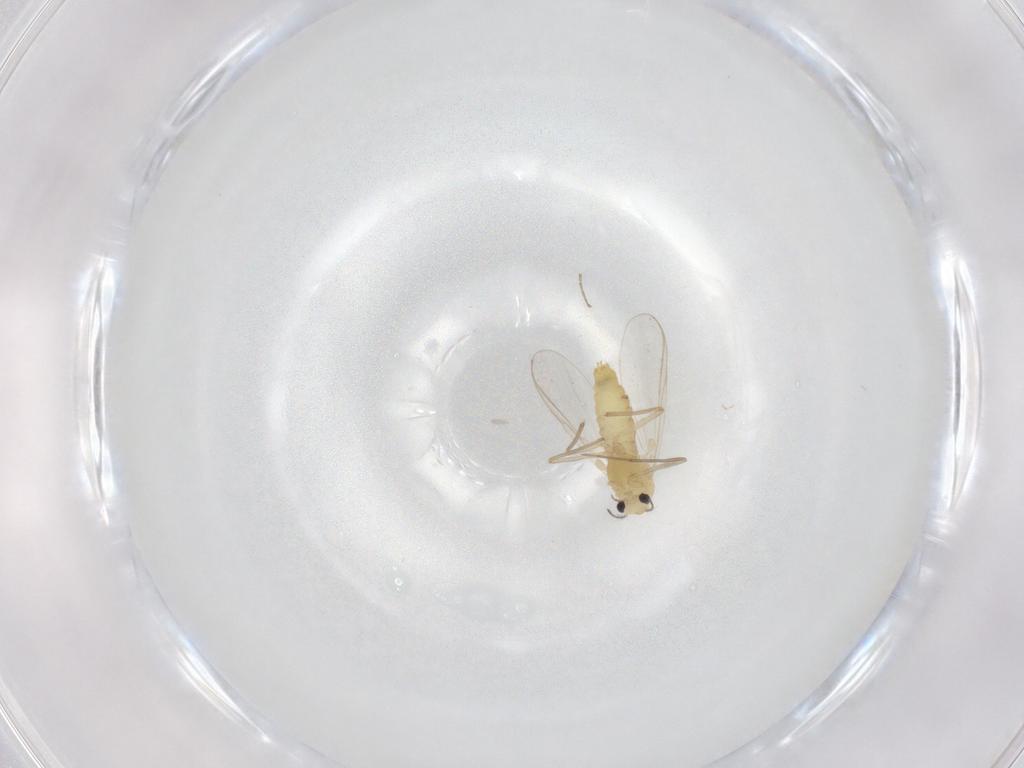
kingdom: Animalia
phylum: Arthropoda
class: Insecta
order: Diptera
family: Chironomidae
